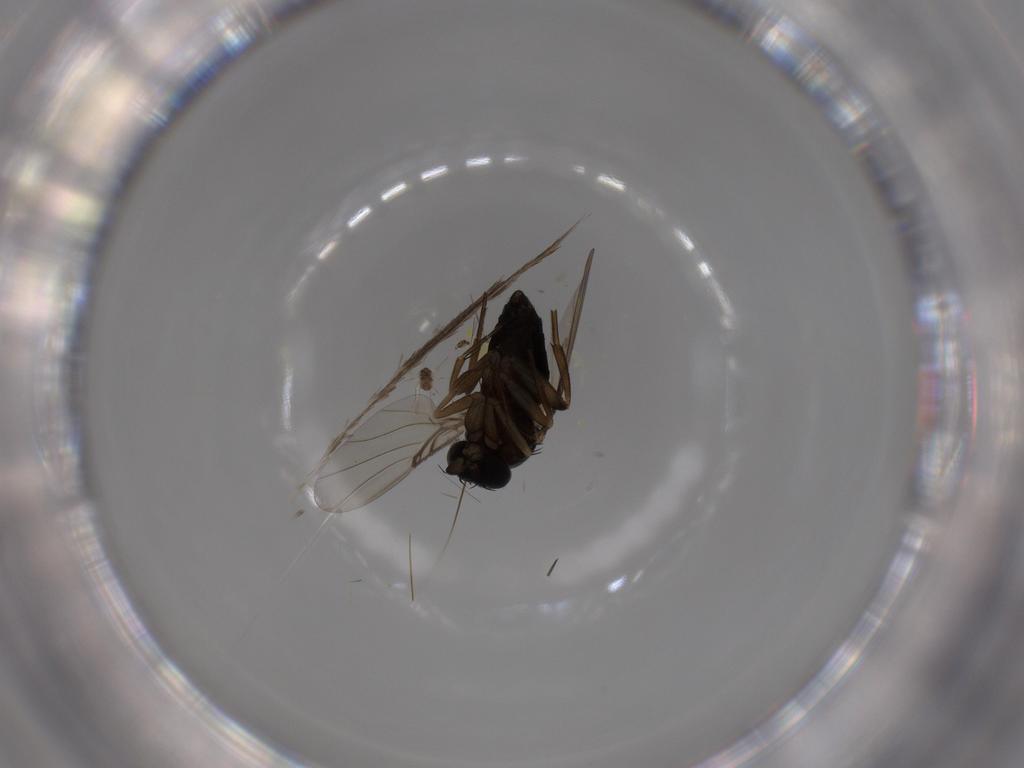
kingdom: Animalia
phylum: Arthropoda
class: Insecta
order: Diptera
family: Phoridae
